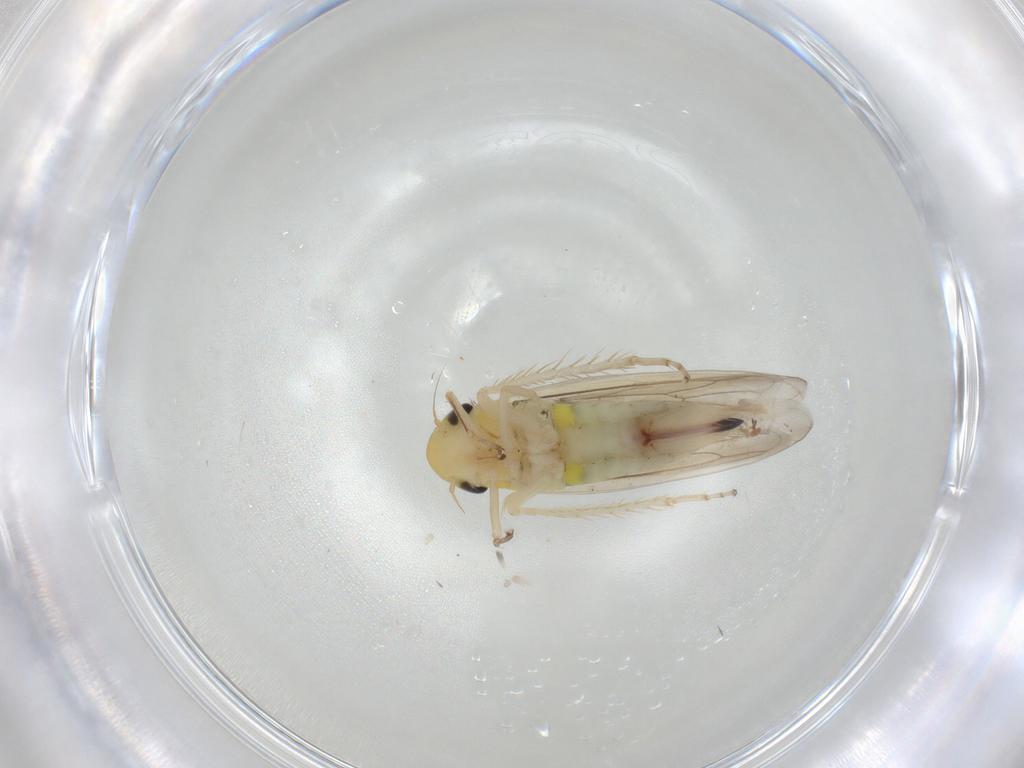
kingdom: Animalia
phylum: Arthropoda
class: Insecta
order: Hemiptera
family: Cicadellidae
